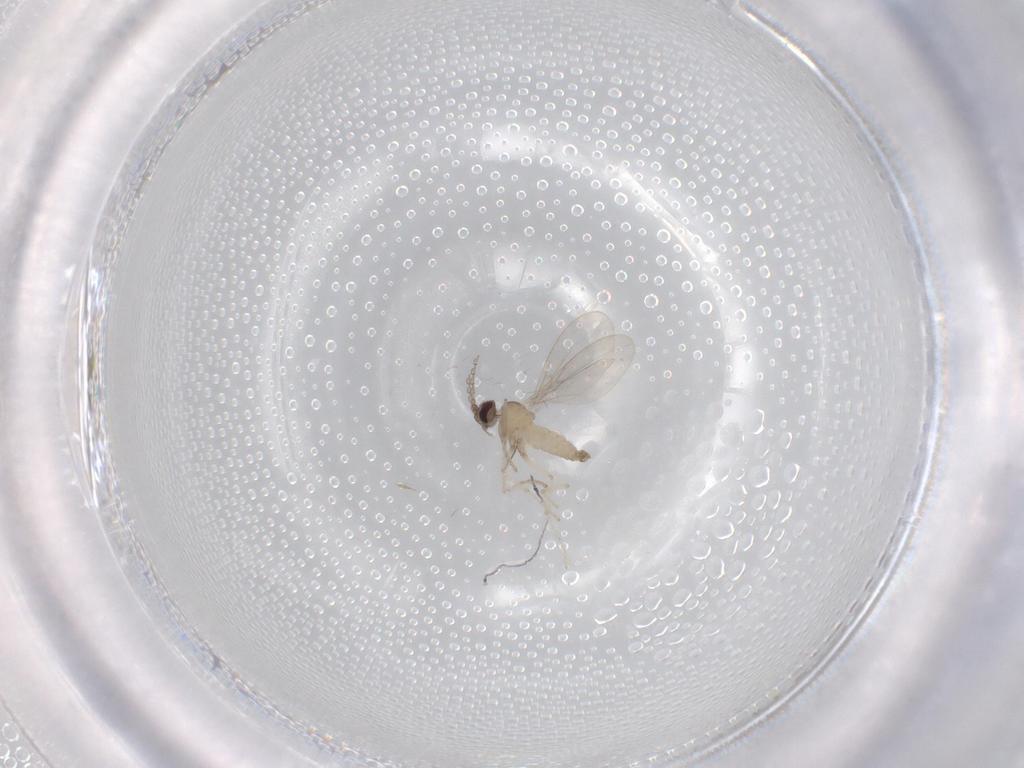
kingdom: Animalia
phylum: Arthropoda
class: Insecta
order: Diptera
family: Cecidomyiidae
